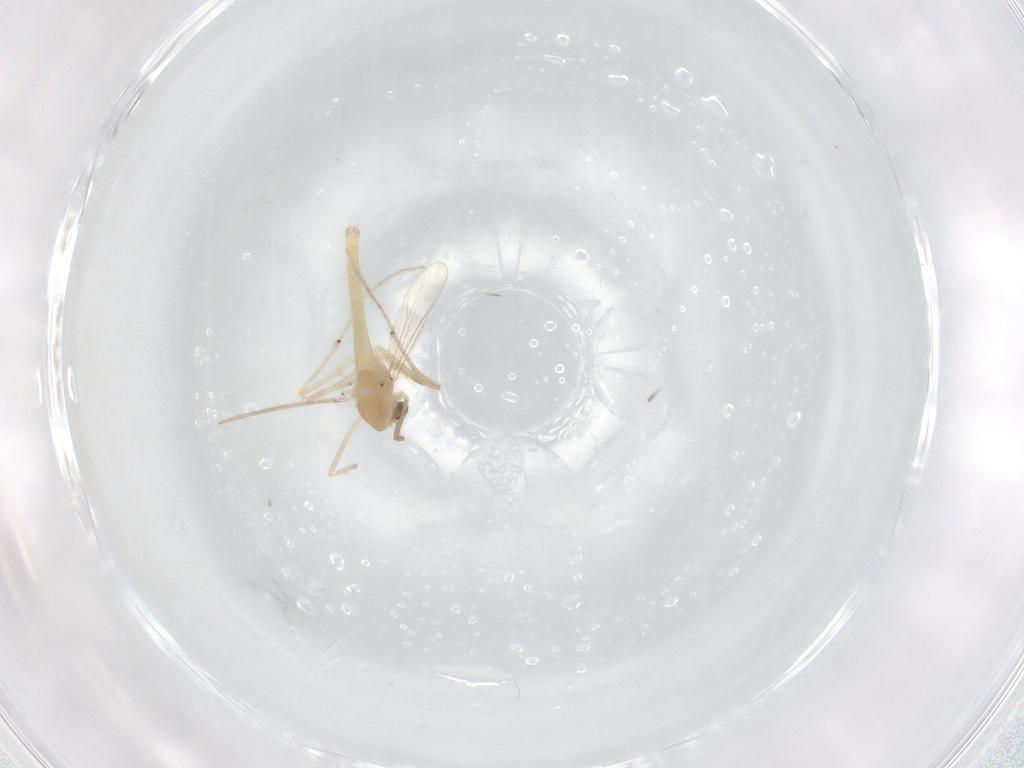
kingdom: Animalia
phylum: Arthropoda
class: Insecta
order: Diptera
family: Chironomidae
